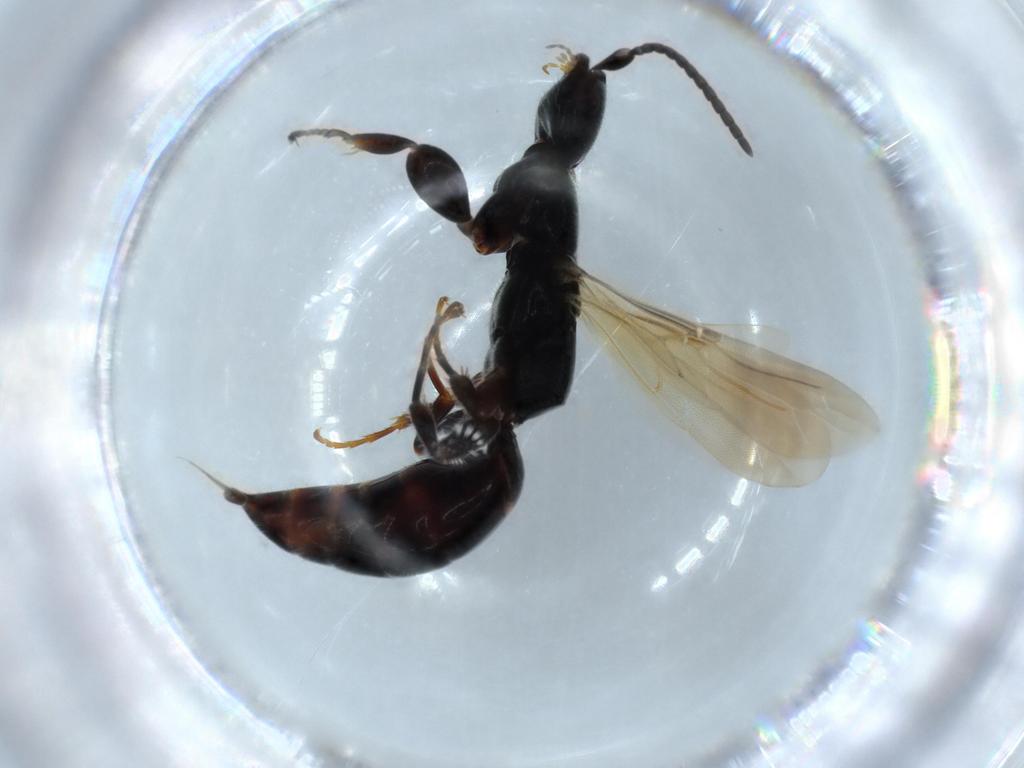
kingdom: Animalia
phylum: Arthropoda
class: Insecta
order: Hymenoptera
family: Bethylidae
